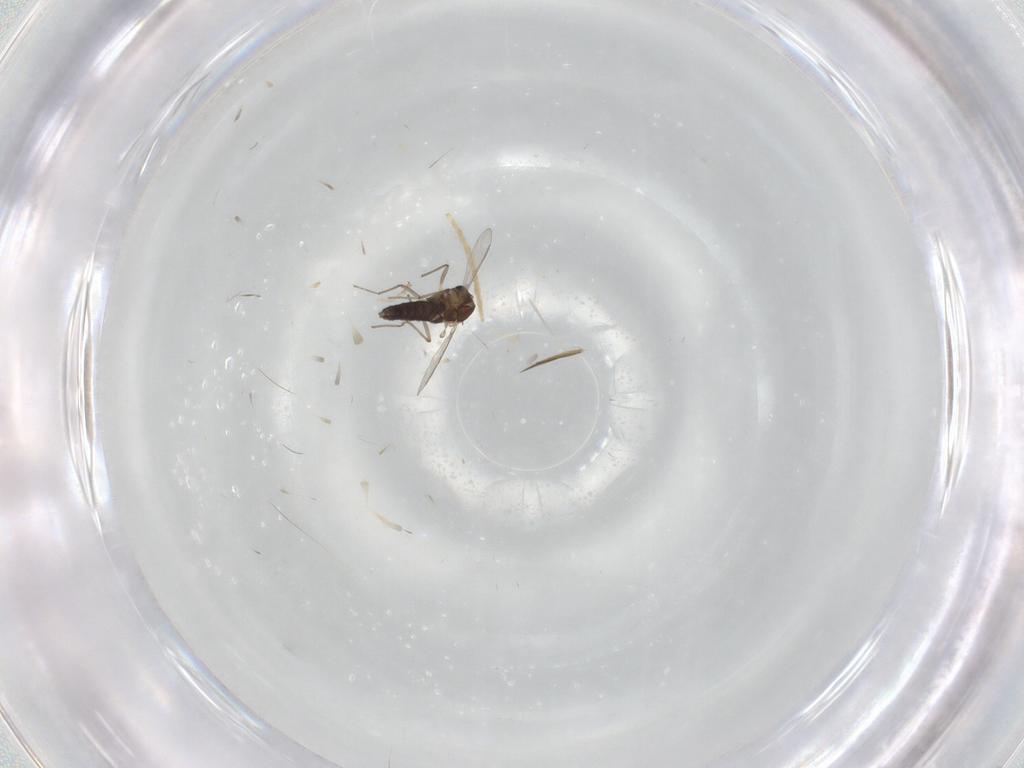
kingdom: Animalia
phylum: Arthropoda
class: Insecta
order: Diptera
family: Chironomidae
